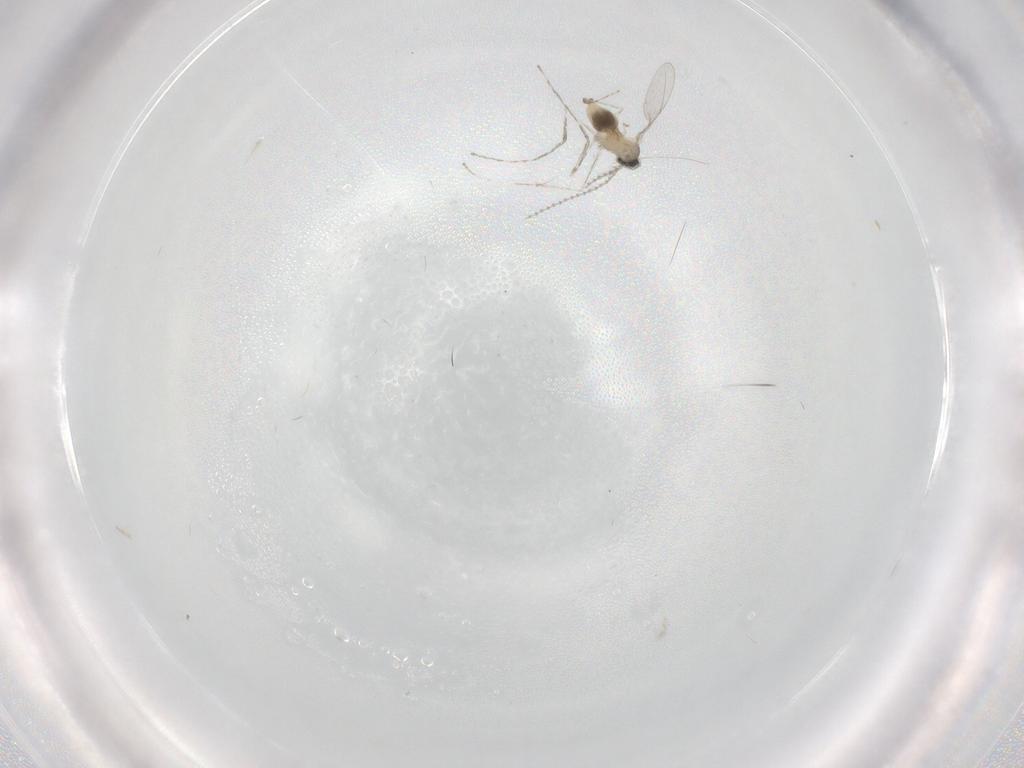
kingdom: Animalia
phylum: Arthropoda
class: Insecta
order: Diptera
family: Cecidomyiidae
